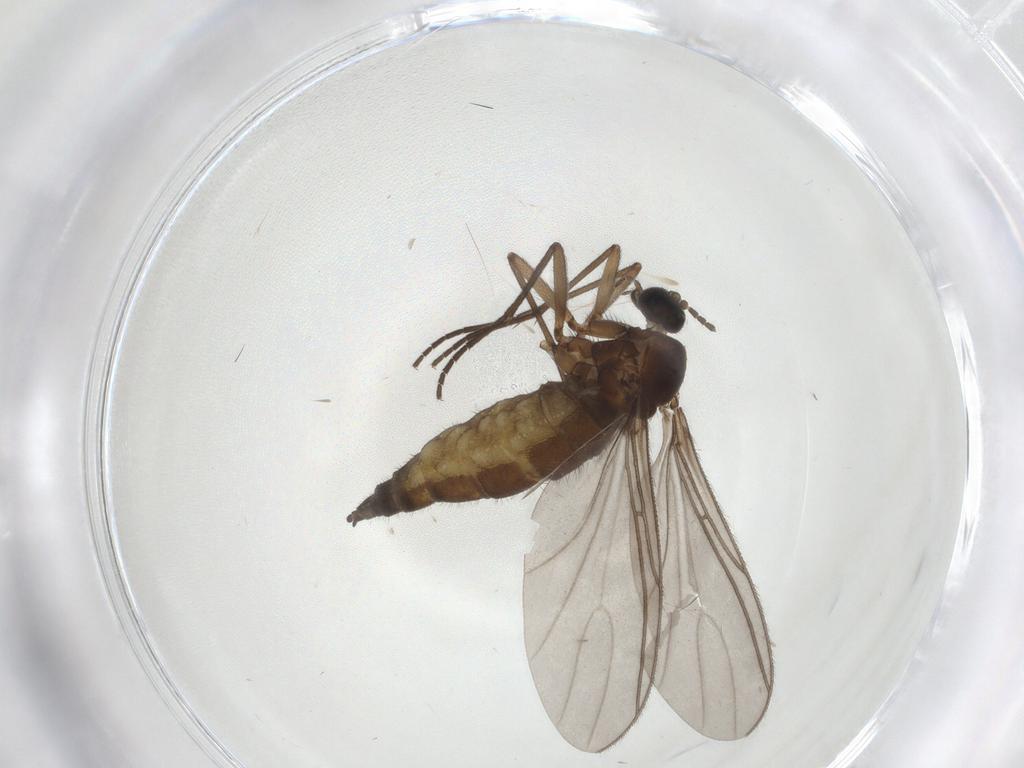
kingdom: Animalia
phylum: Arthropoda
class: Insecta
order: Diptera
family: Sciaridae
